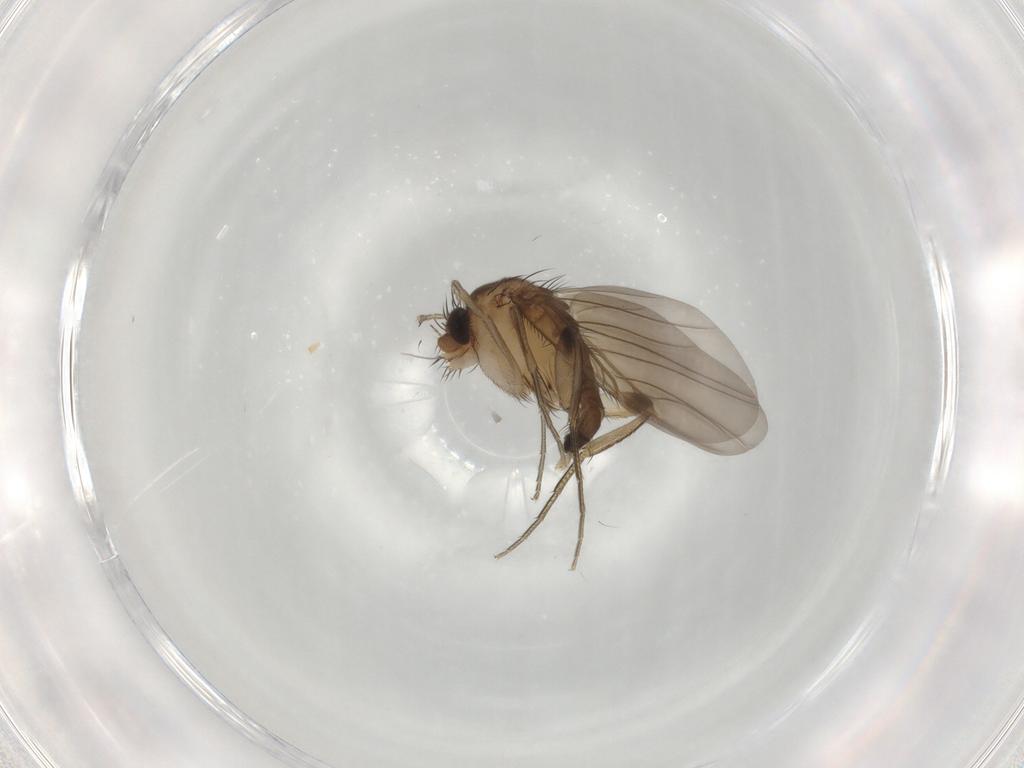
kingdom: Animalia
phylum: Arthropoda
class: Insecta
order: Diptera
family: Phoridae
